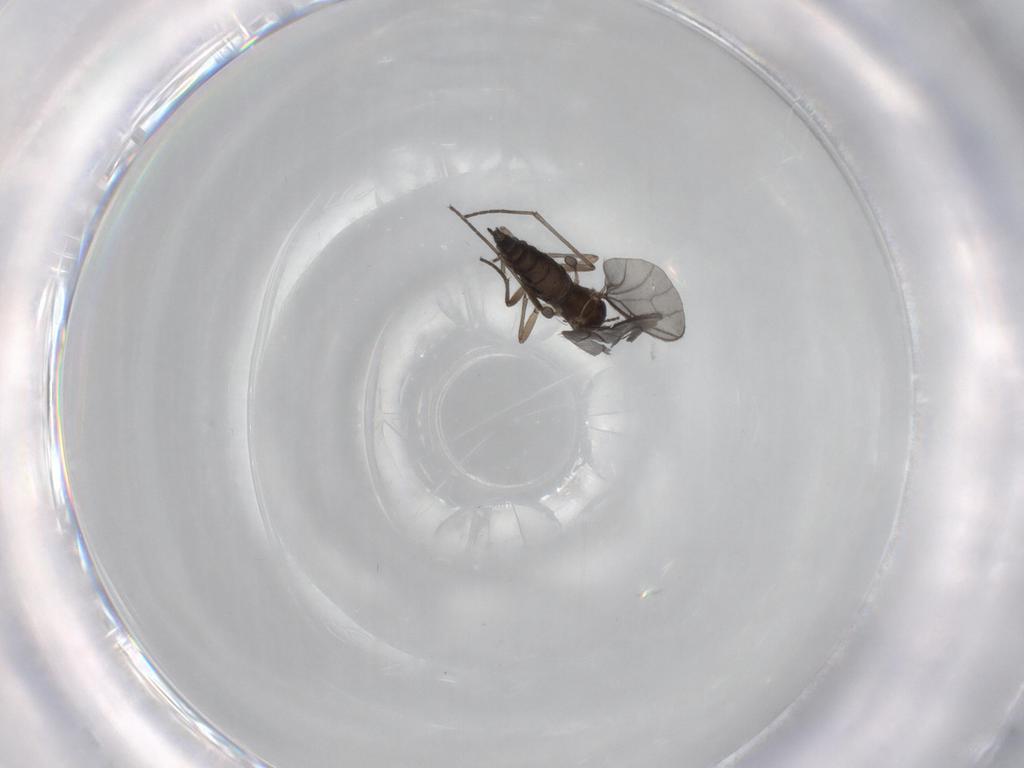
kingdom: Animalia
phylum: Arthropoda
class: Insecta
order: Diptera
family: Sciaridae
